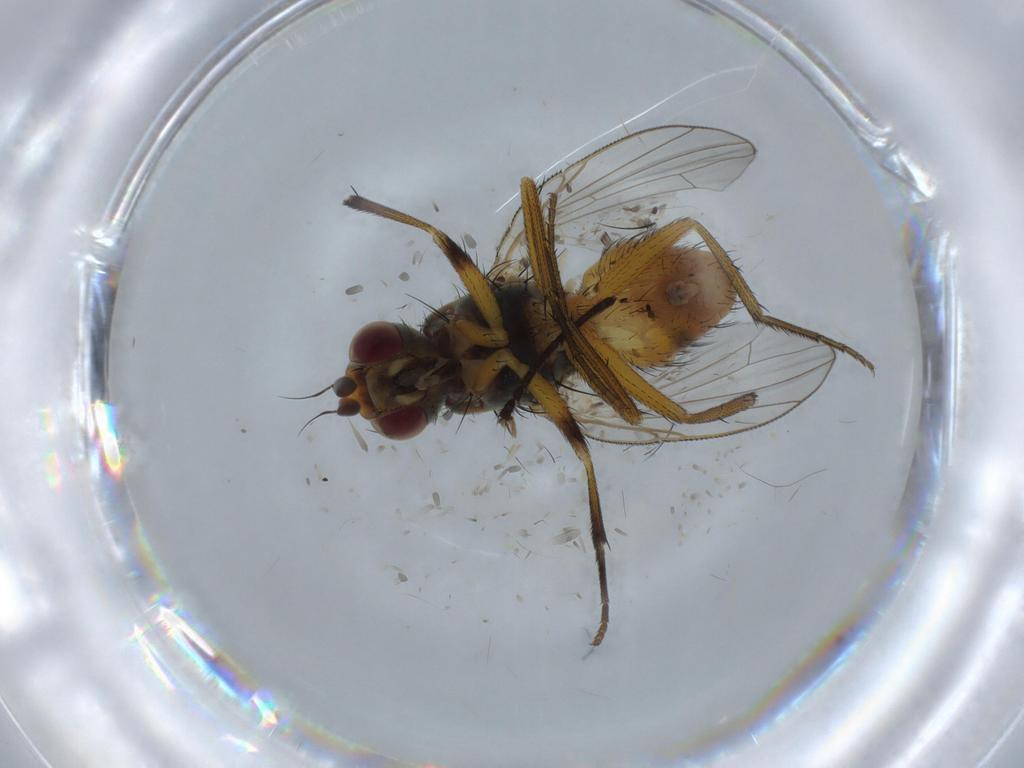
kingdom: Animalia
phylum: Arthropoda
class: Insecta
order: Diptera
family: Muscidae
